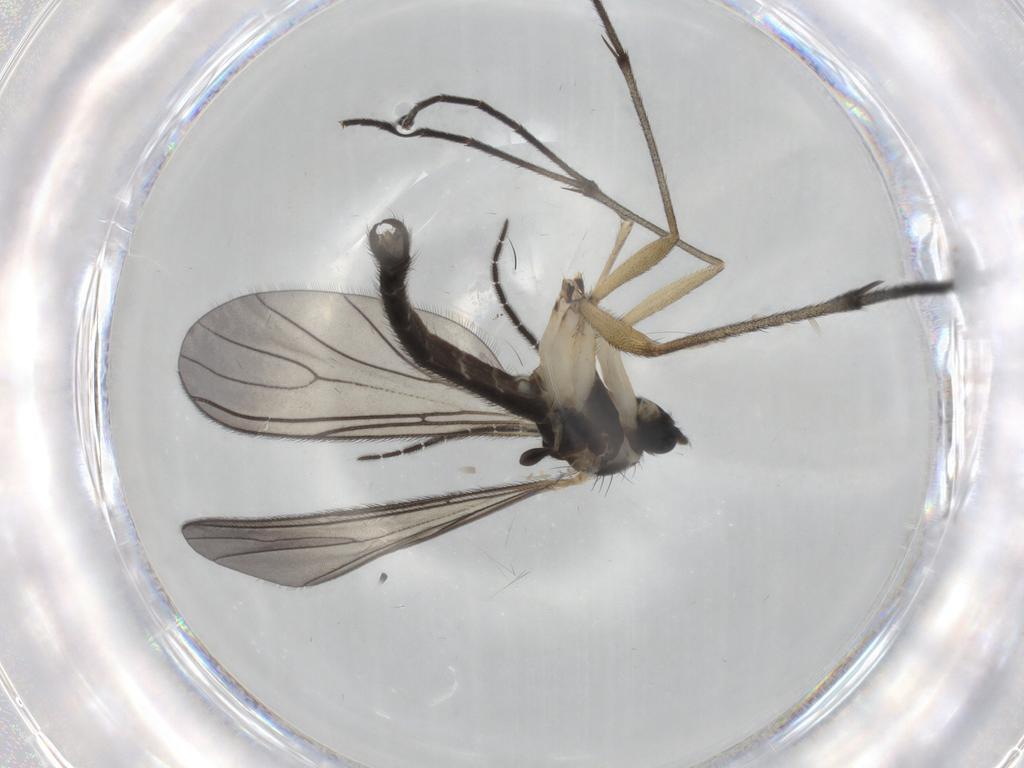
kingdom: Animalia
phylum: Arthropoda
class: Insecta
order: Diptera
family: Sciaridae
